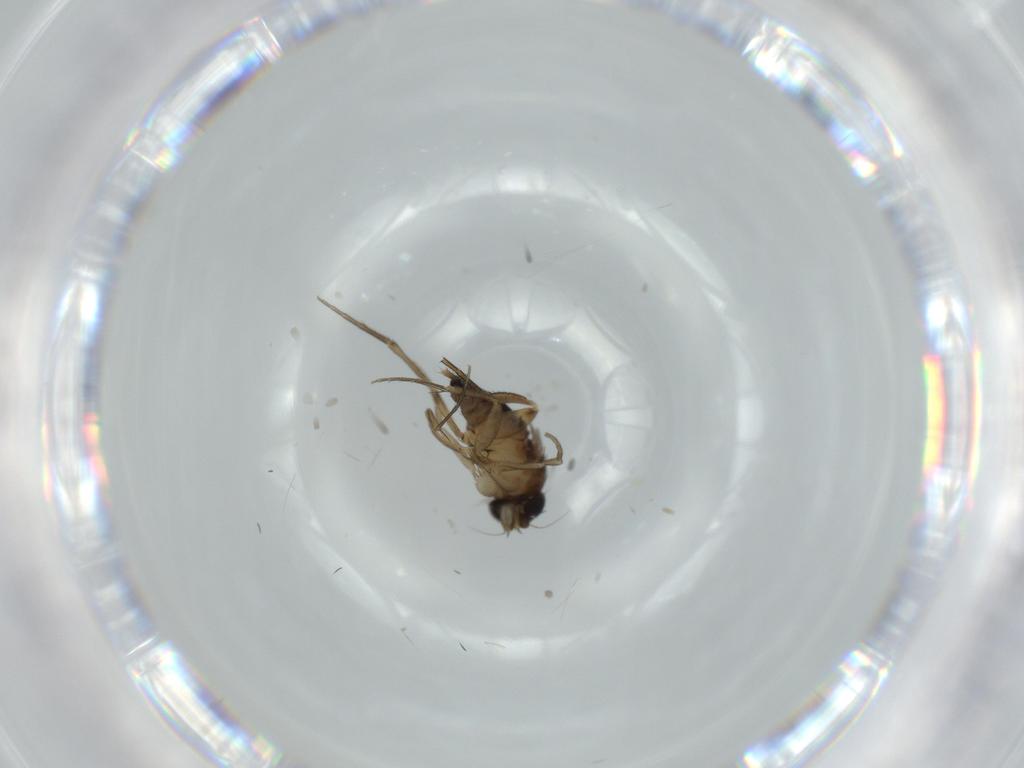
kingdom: Animalia
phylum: Arthropoda
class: Insecta
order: Diptera
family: Phoridae
